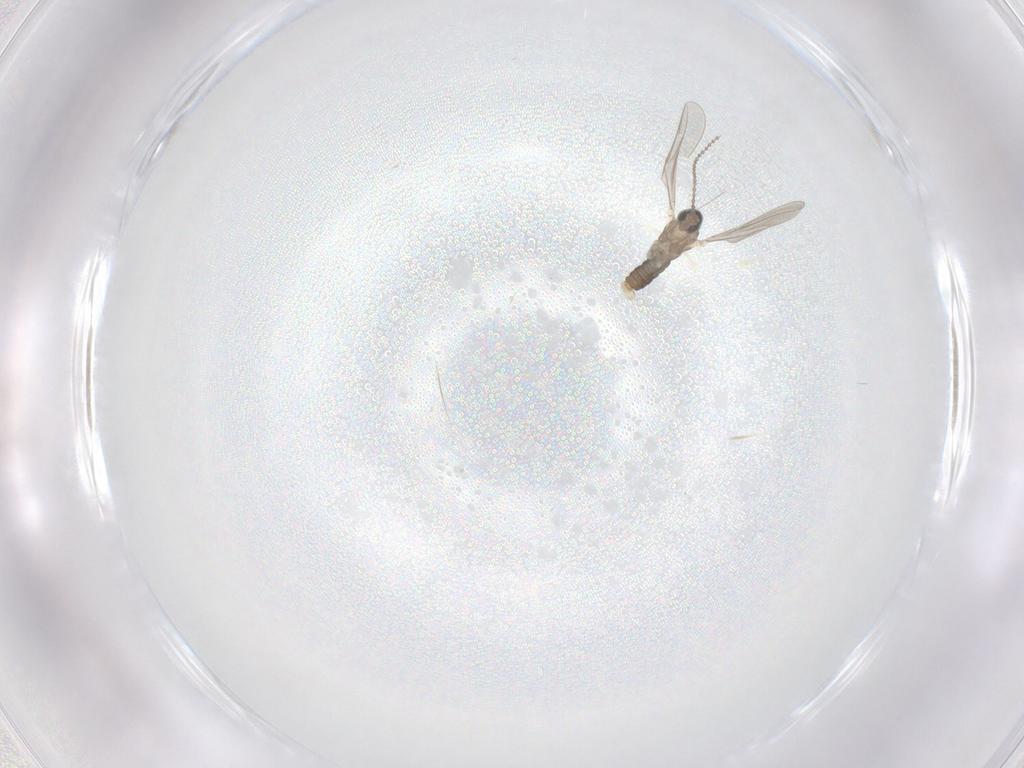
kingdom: Animalia
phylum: Arthropoda
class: Insecta
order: Diptera
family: Cecidomyiidae
